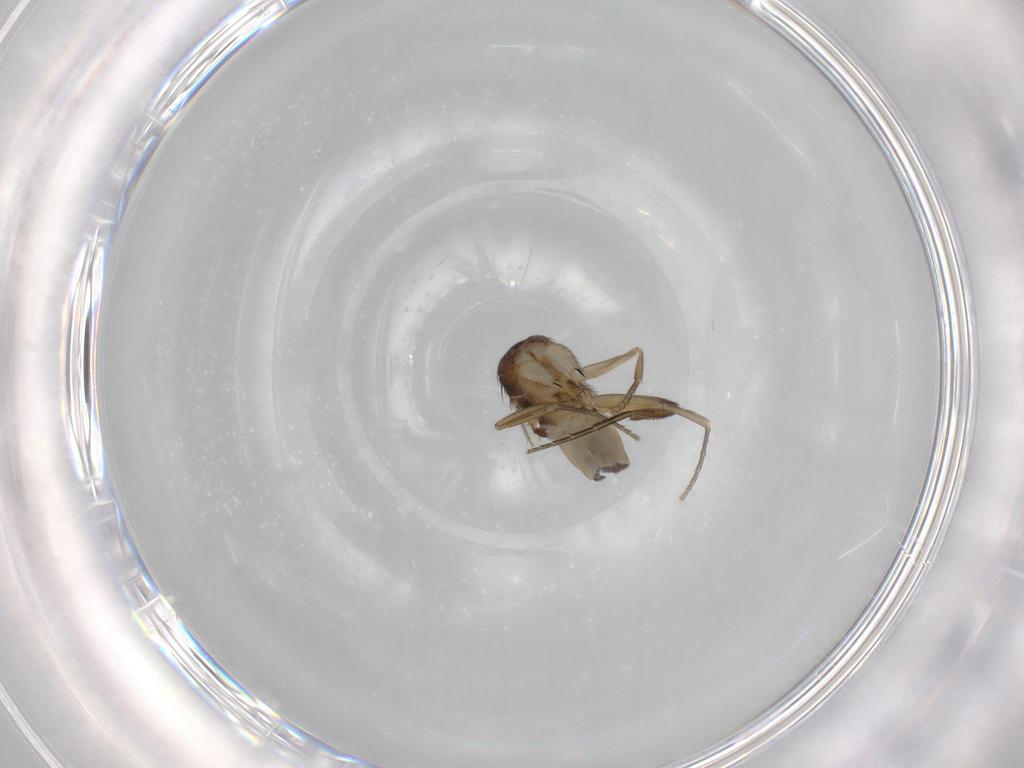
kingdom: Animalia
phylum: Arthropoda
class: Insecta
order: Diptera
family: Phoridae
